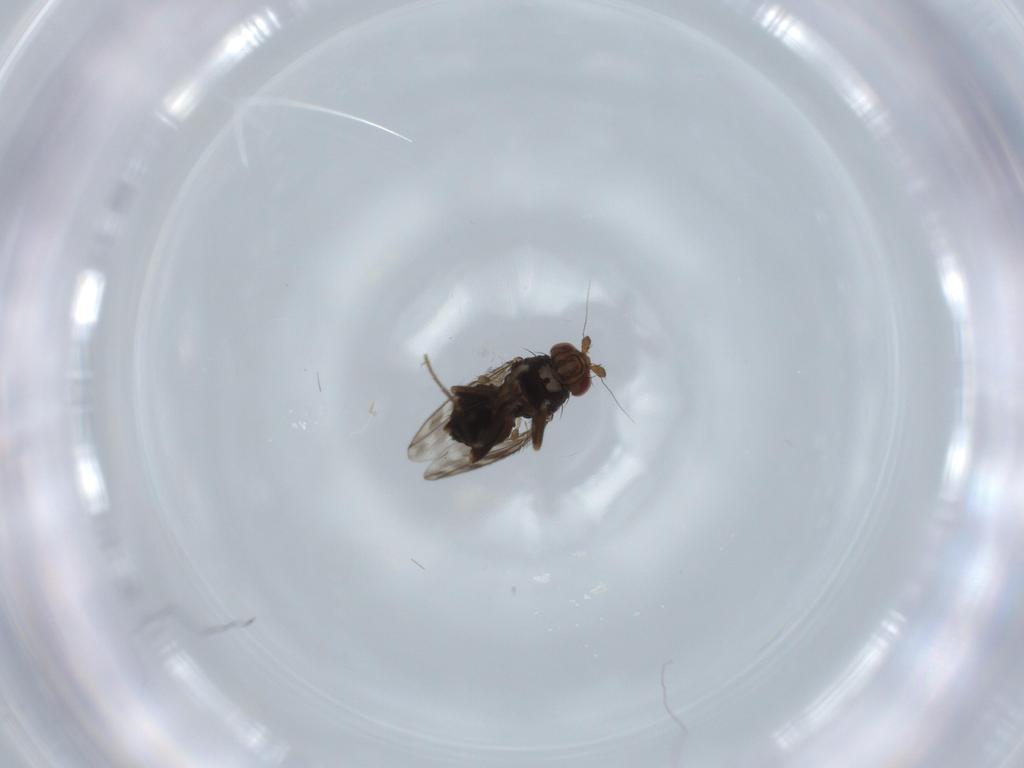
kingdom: Animalia
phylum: Arthropoda
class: Insecta
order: Diptera
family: Sphaeroceridae
